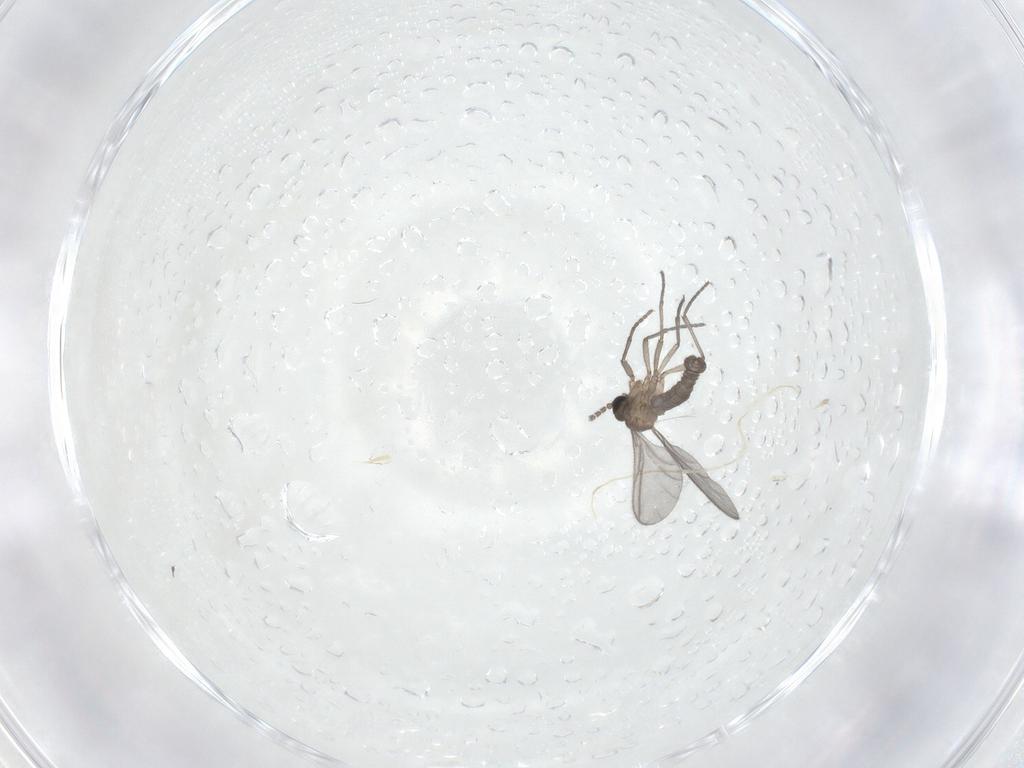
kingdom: Animalia
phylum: Arthropoda
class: Insecta
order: Diptera
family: Sciaridae
